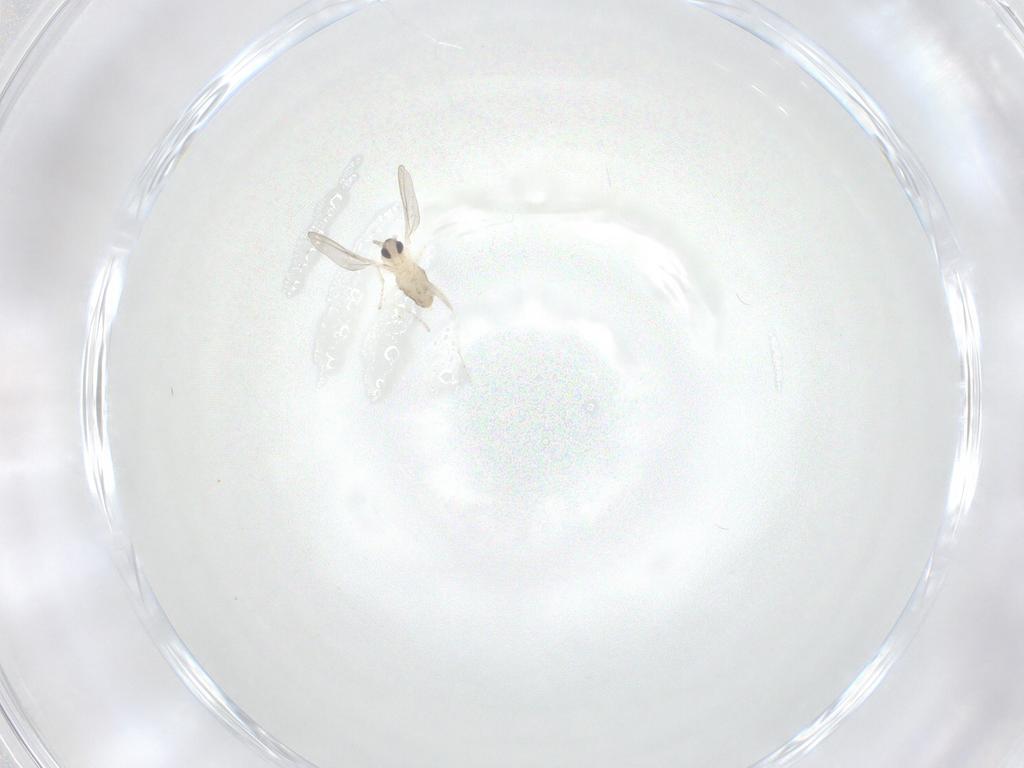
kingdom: Animalia
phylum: Arthropoda
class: Insecta
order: Diptera
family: Cecidomyiidae
